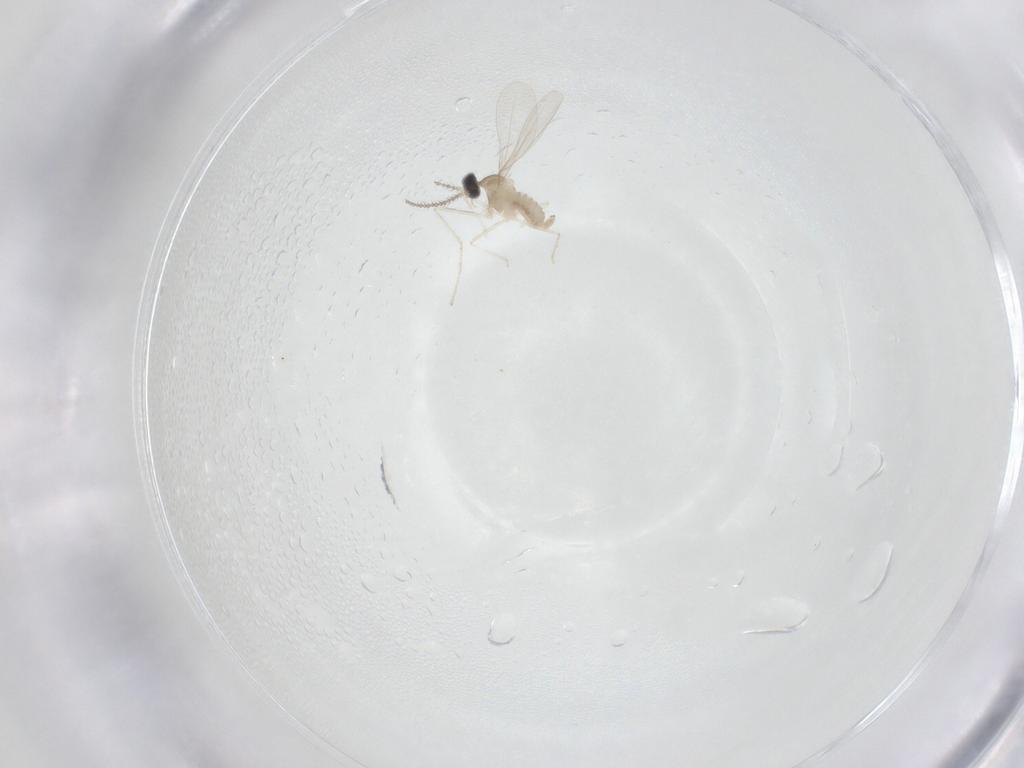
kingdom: Animalia
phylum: Arthropoda
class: Insecta
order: Diptera
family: Cecidomyiidae
